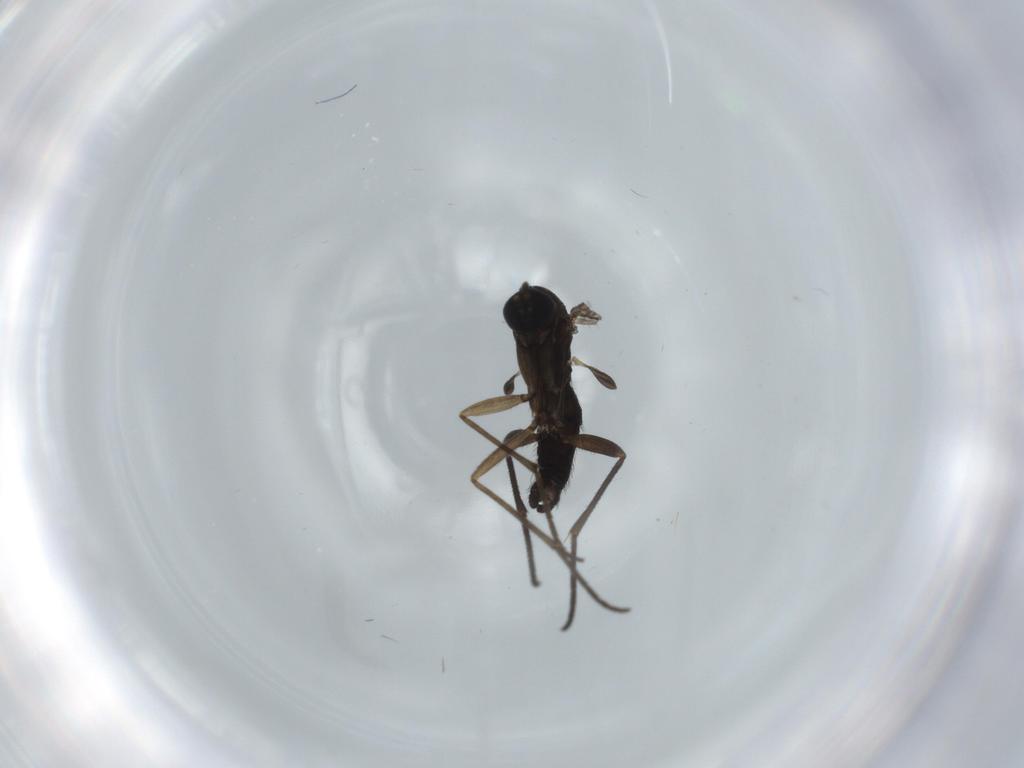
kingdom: Animalia
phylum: Arthropoda
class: Insecta
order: Diptera
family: Sciaridae
